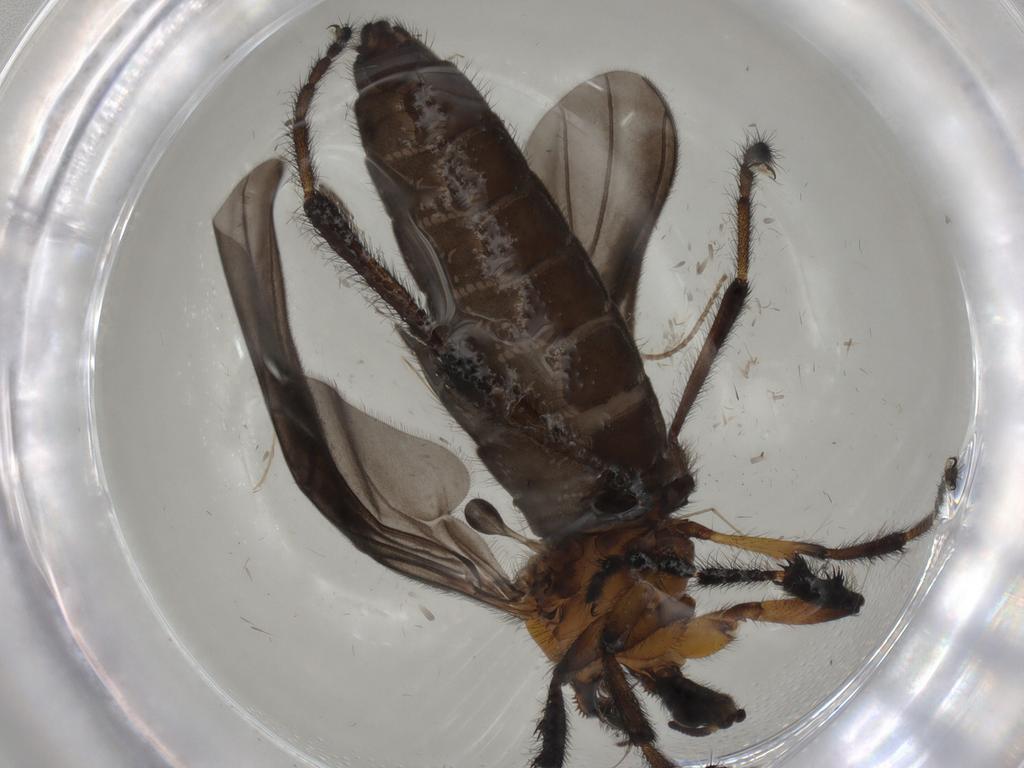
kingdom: Animalia
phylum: Arthropoda
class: Insecta
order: Diptera
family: Bibionidae
